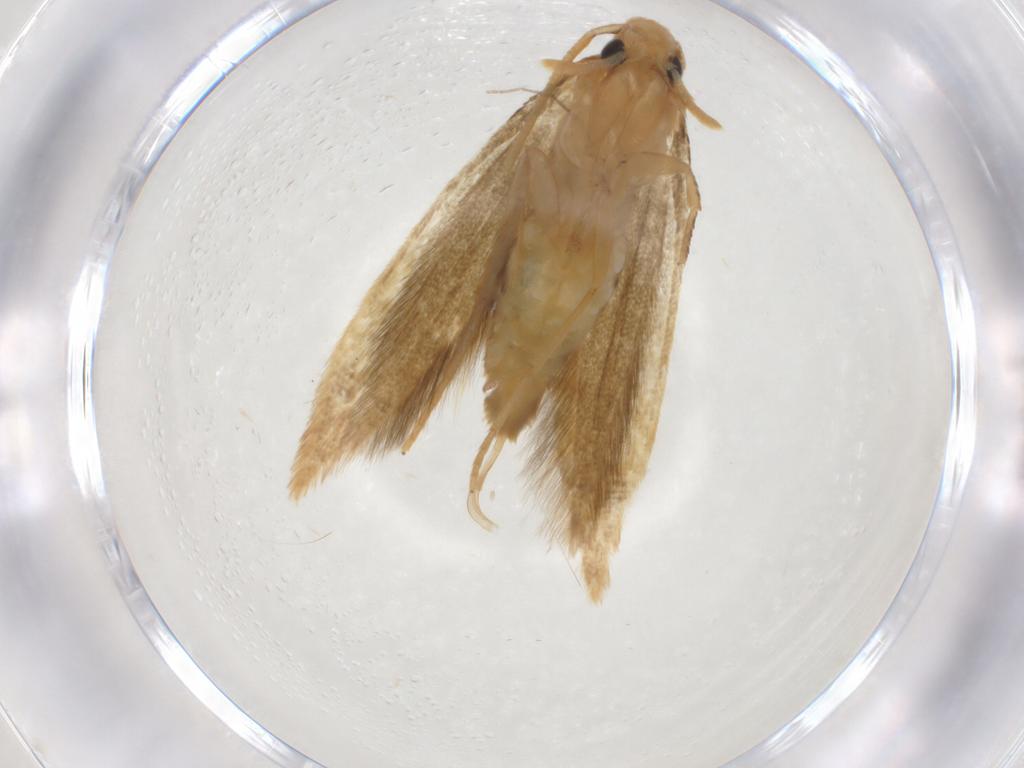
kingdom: Animalia
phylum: Arthropoda
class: Insecta
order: Lepidoptera
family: Tineidae
